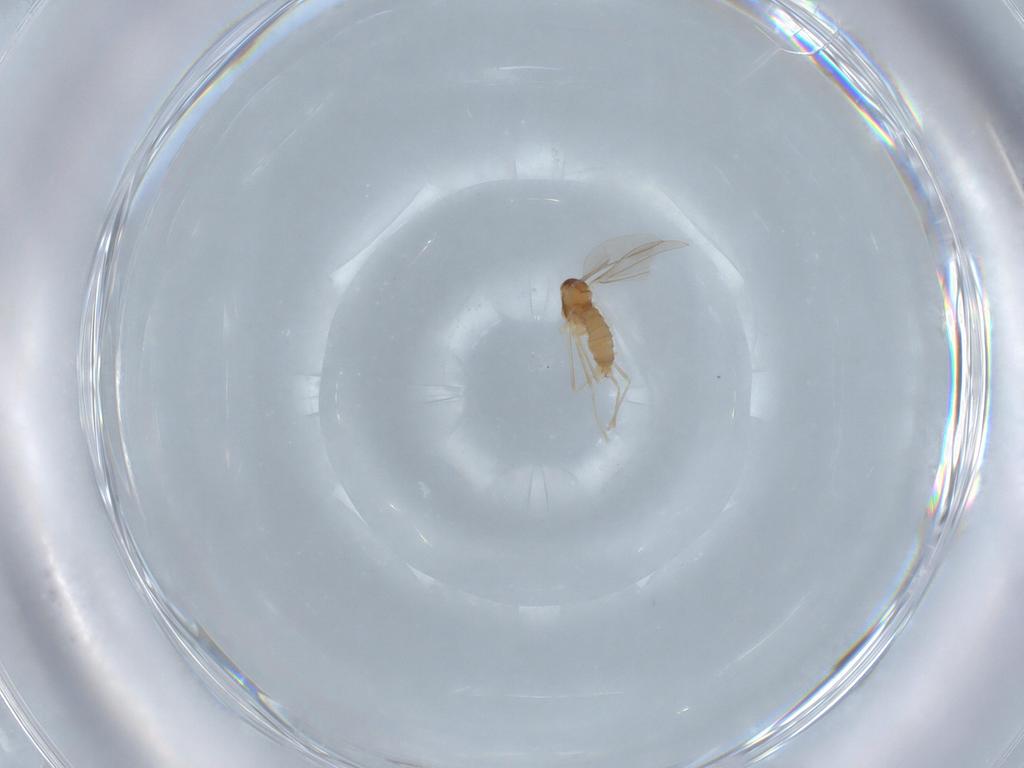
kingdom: Animalia
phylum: Arthropoda
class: Insecta
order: Diptera
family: Cecidomyiidae
